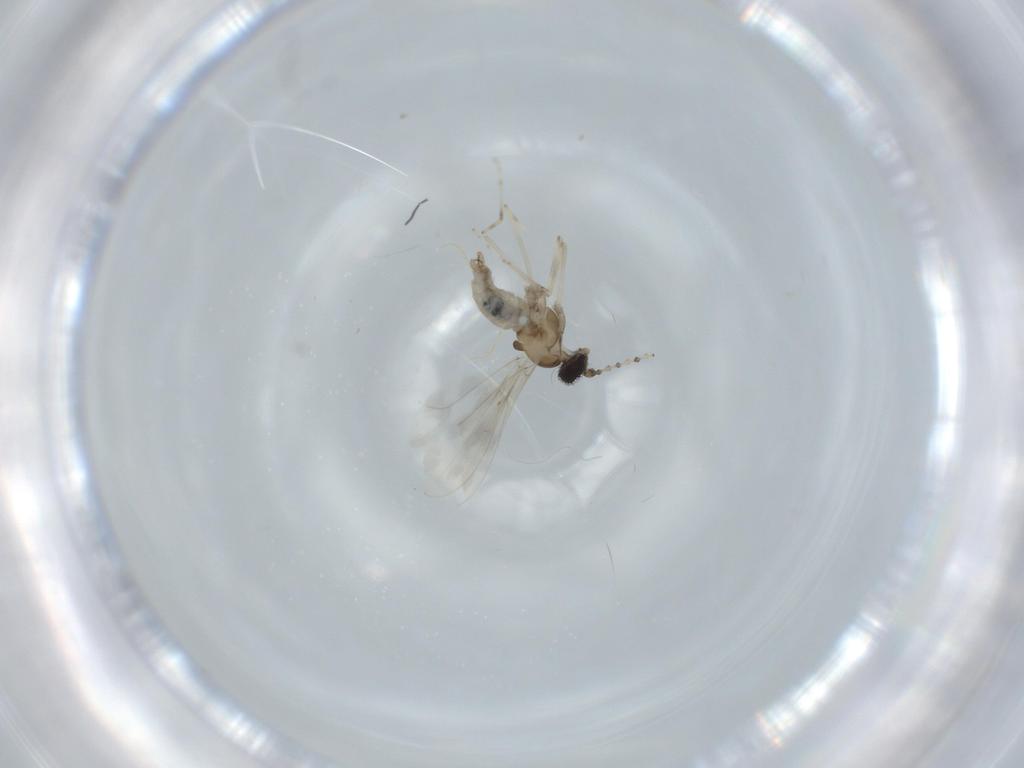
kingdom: Animalia
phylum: Arthropoda
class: Insecta
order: Diptera
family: Cecidomyiidae
